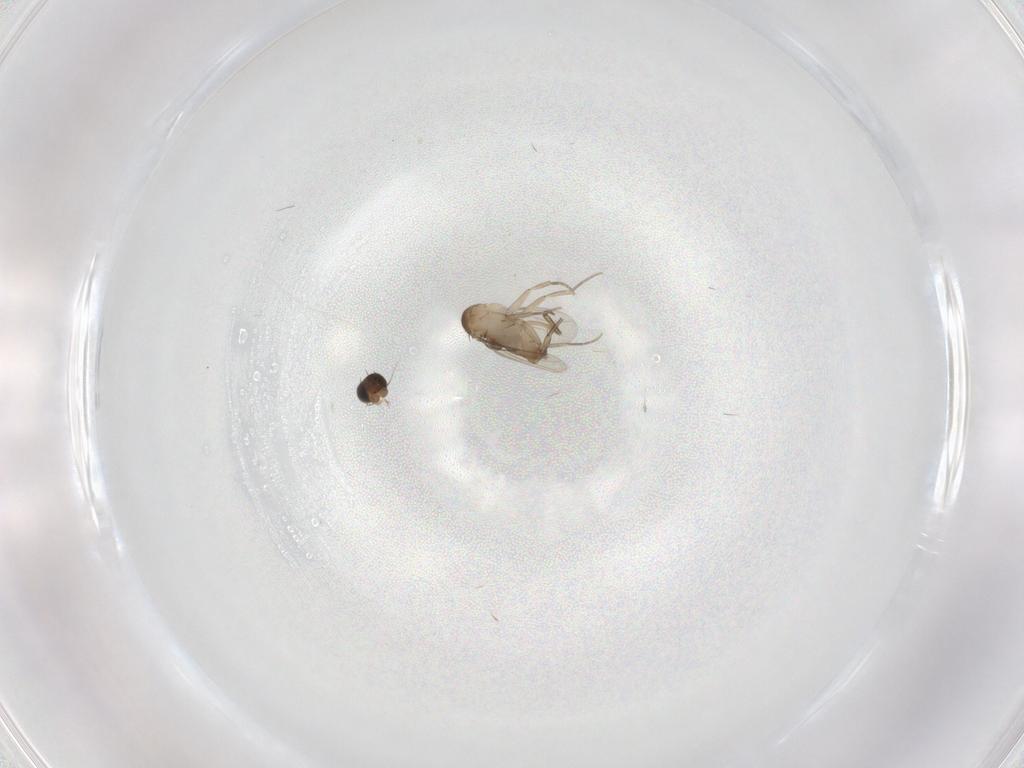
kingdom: Animalia
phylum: Arthropoda
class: Insecta
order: Diptera
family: Phoridae
